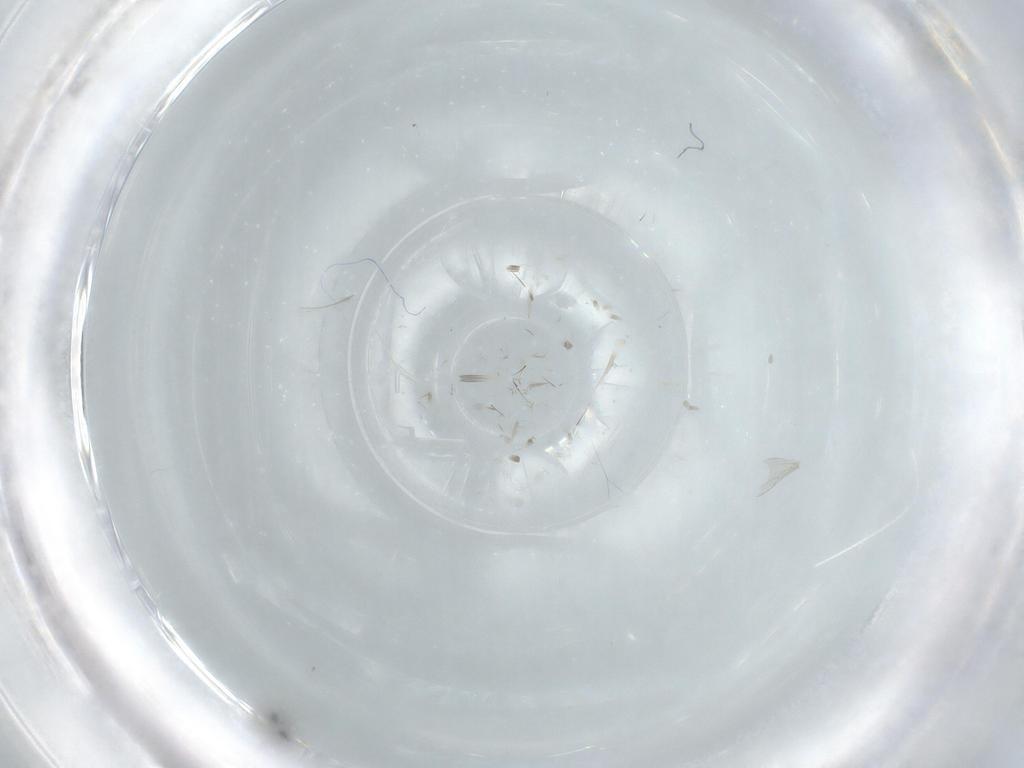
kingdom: Animalia
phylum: Arthropoda
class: Insecta
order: Diptera
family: Cecidomyiidae
